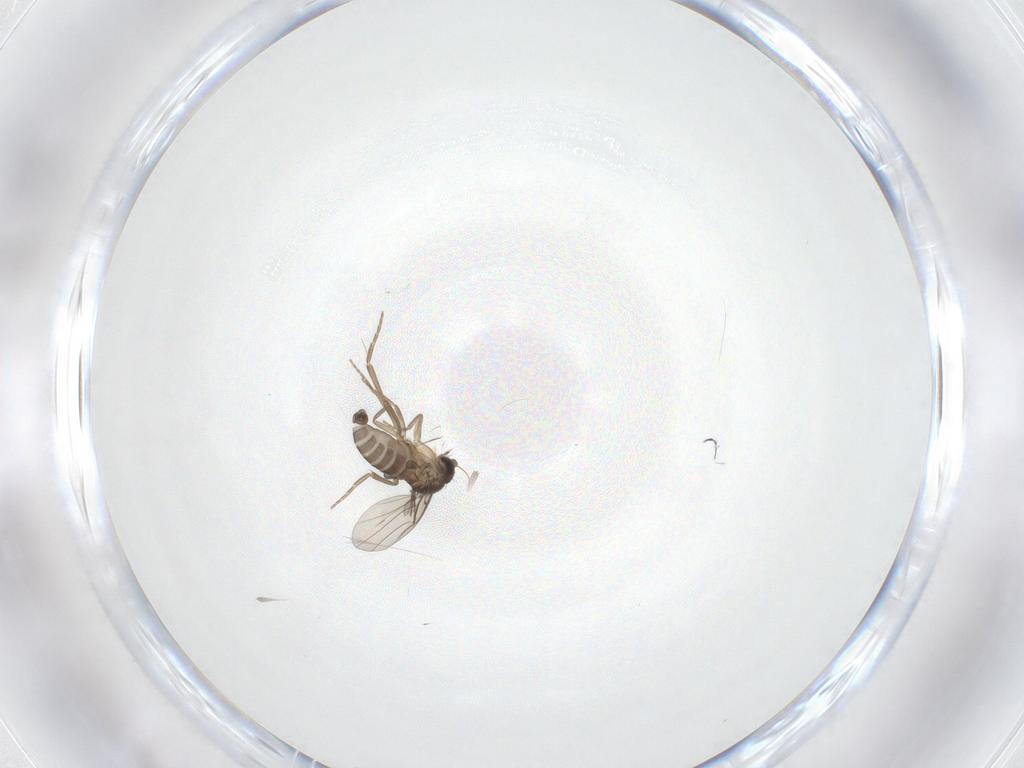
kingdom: Animalia
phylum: Arthropoda
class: Insecta
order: Diptera
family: Phoridae
